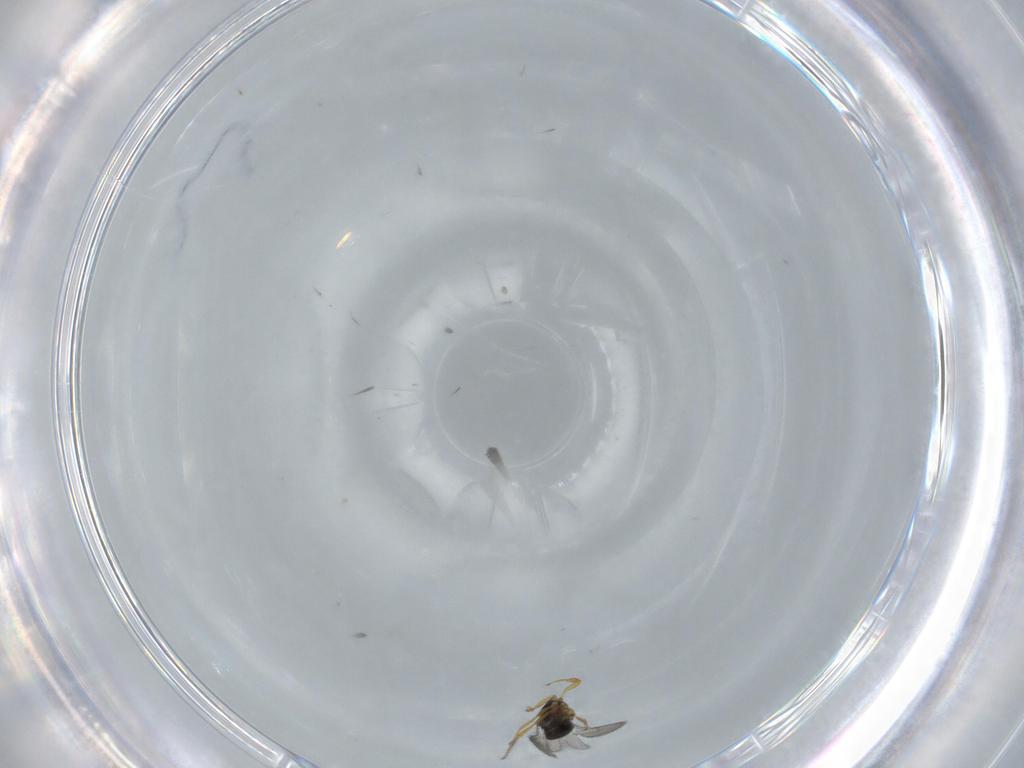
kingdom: Animalia
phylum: Arthropoda
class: Insecta
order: Hymenoptera
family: Scelionidae
